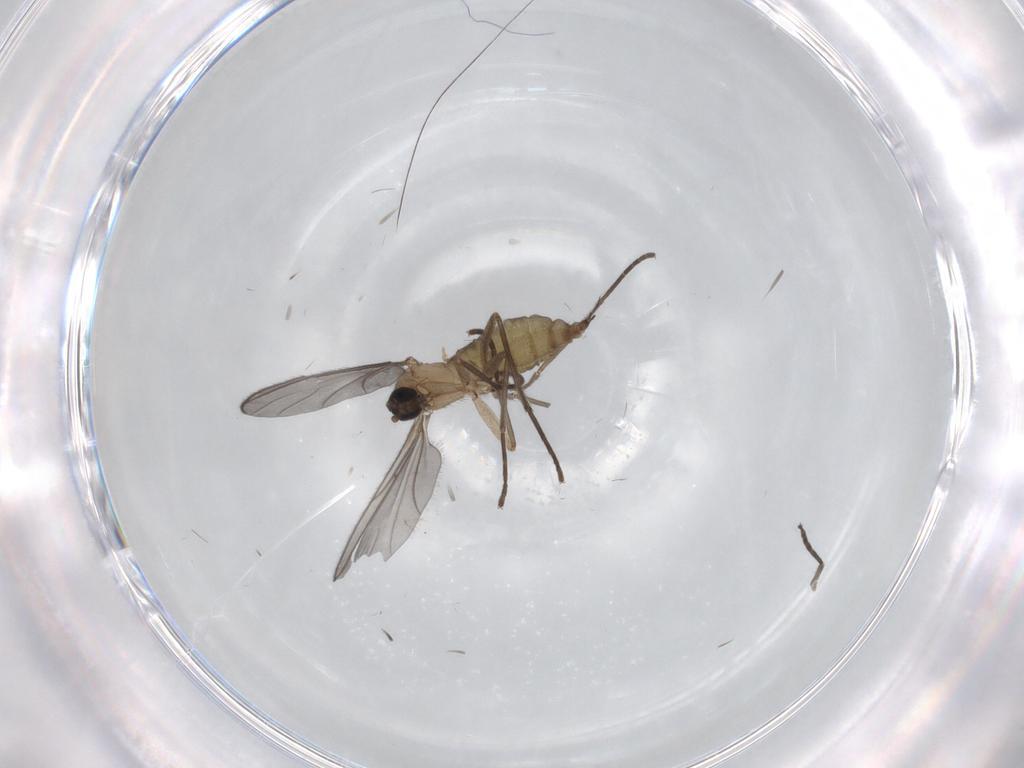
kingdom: Animalia
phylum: Arthropoda
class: Insecta
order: Diptera
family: Sciaridae
